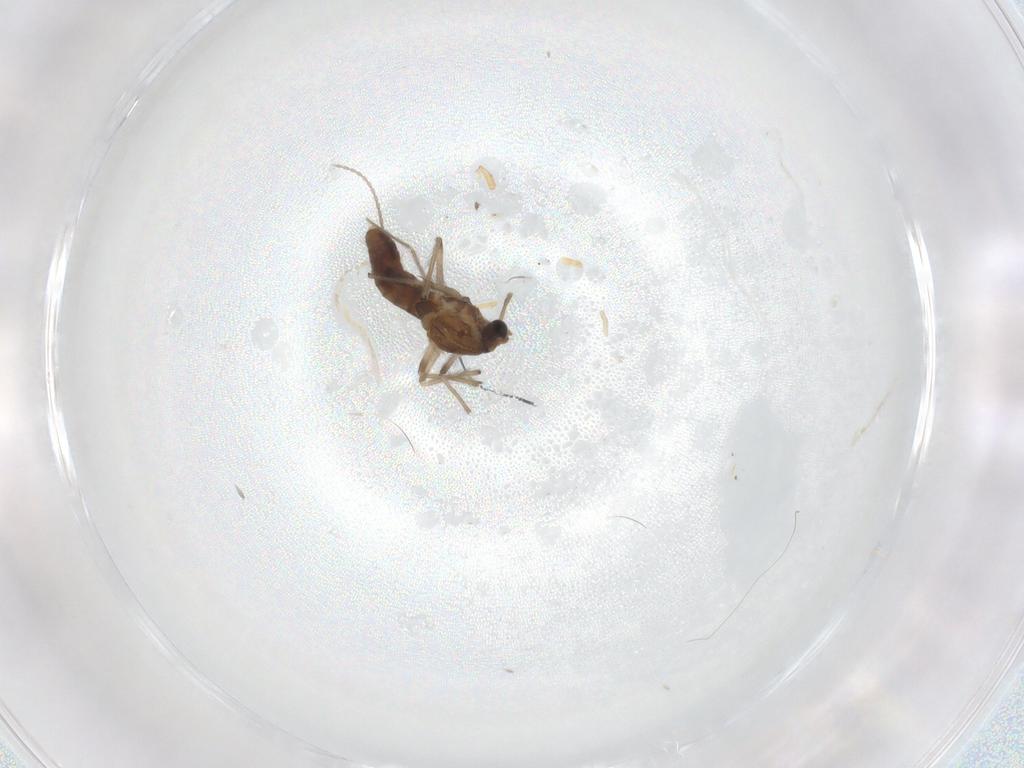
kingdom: Animalia
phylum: Arthropoda
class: Insecta
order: Diptera
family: Chironomidae
